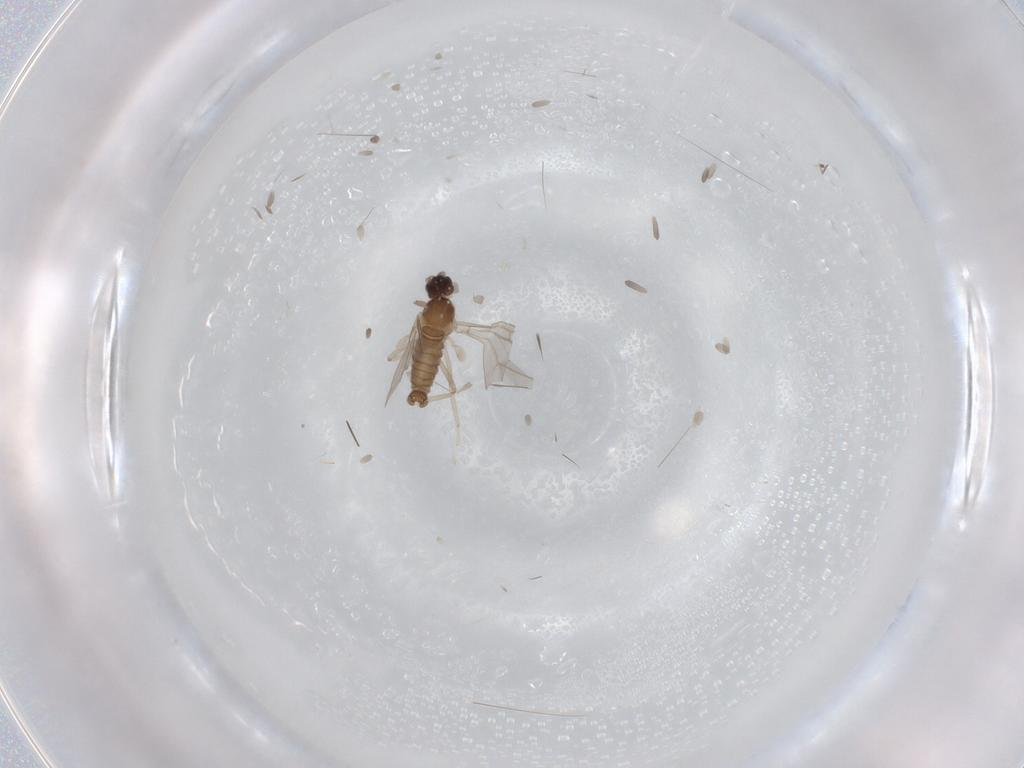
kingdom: Animalia
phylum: Arthropoda
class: Insecta
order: Diptera
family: Cecidomyiidae
